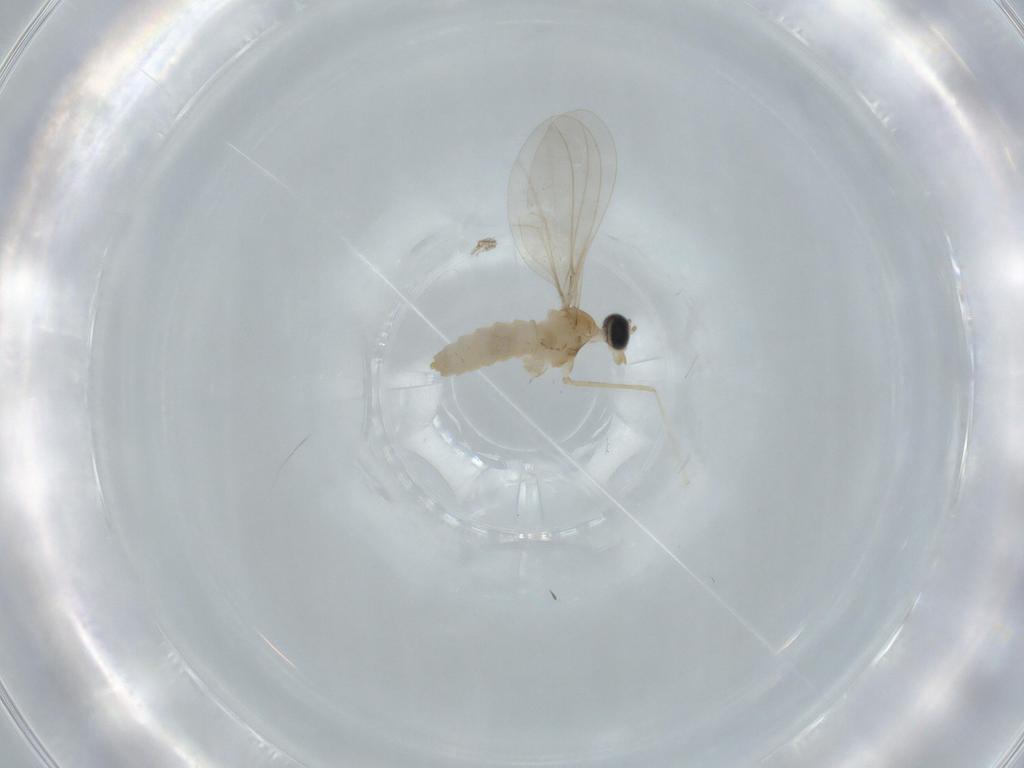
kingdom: Animalia
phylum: Arthropoda
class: Insecta
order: Diptera
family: Cecidomyiidae
